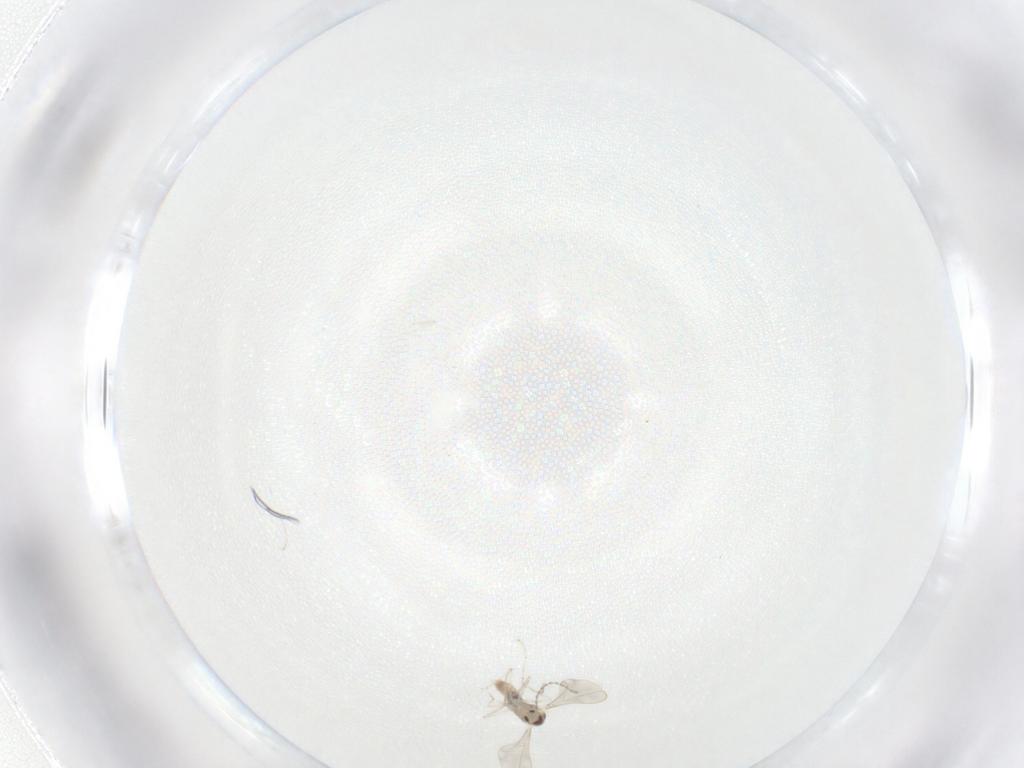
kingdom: Animalia
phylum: Arthropoda
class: Insecta
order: Diptera
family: Cecidomyiidae
